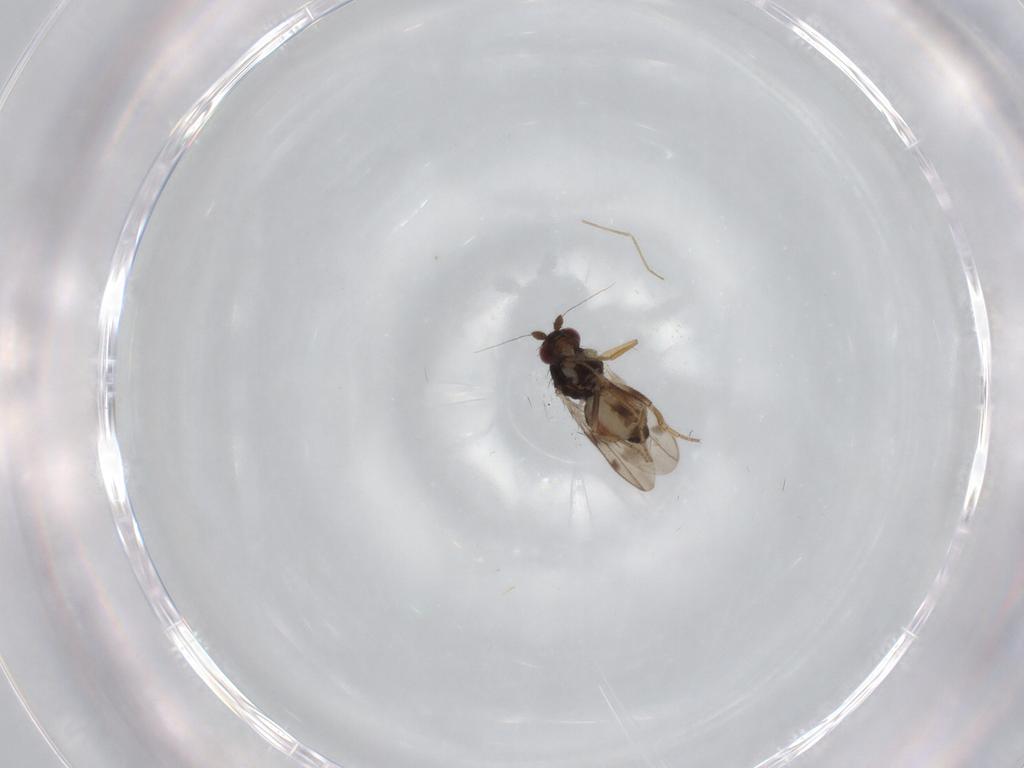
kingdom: Animalia
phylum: Arthropoda
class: Insecta
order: Diptera
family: Sphaeroceridae
